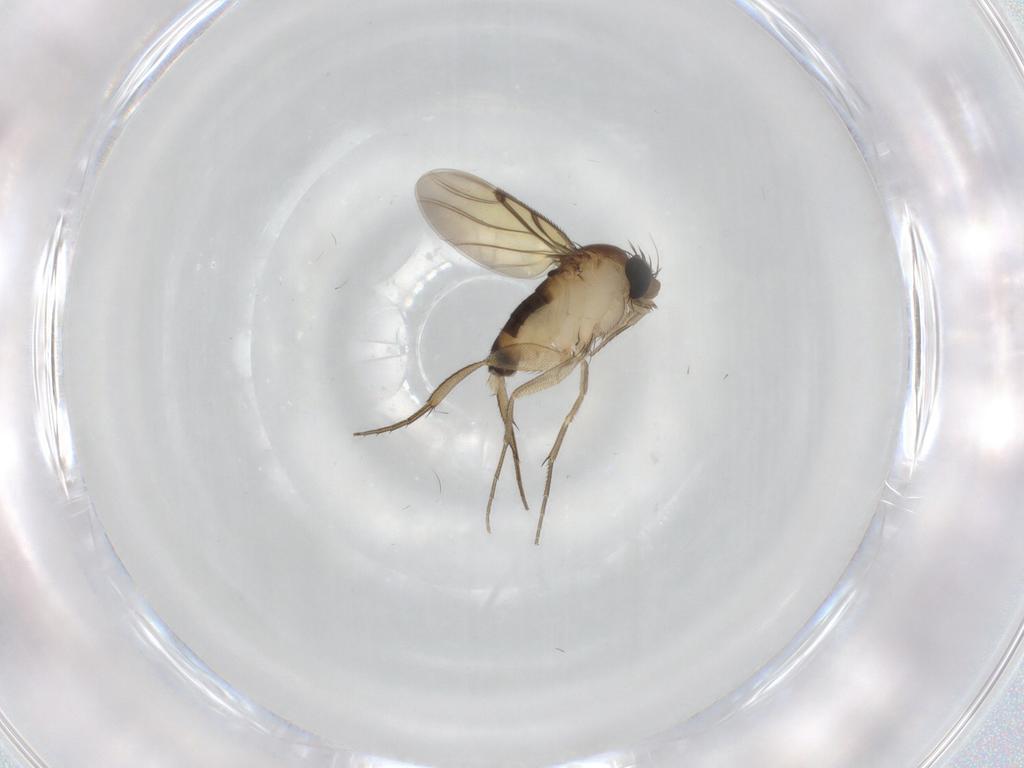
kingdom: Animalia
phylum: Arthropoda
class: Insecta
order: Diptera
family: Phoridae
